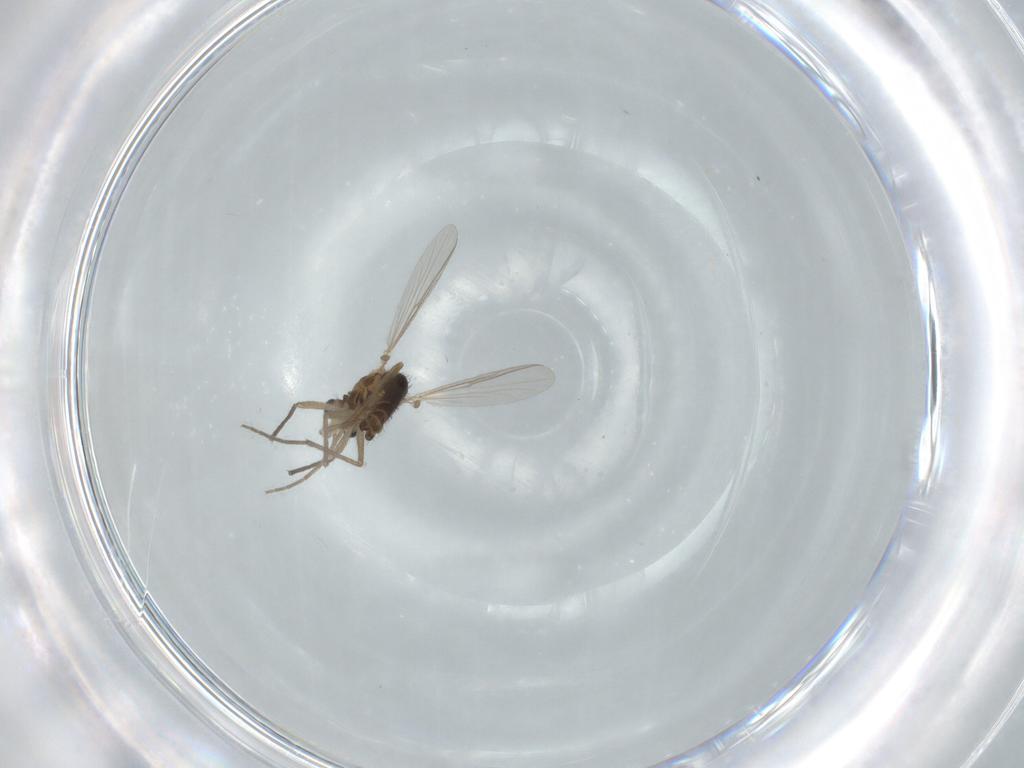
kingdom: Animalia
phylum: Arthropoda
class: Insecta
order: Diptera
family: Chironomidae
